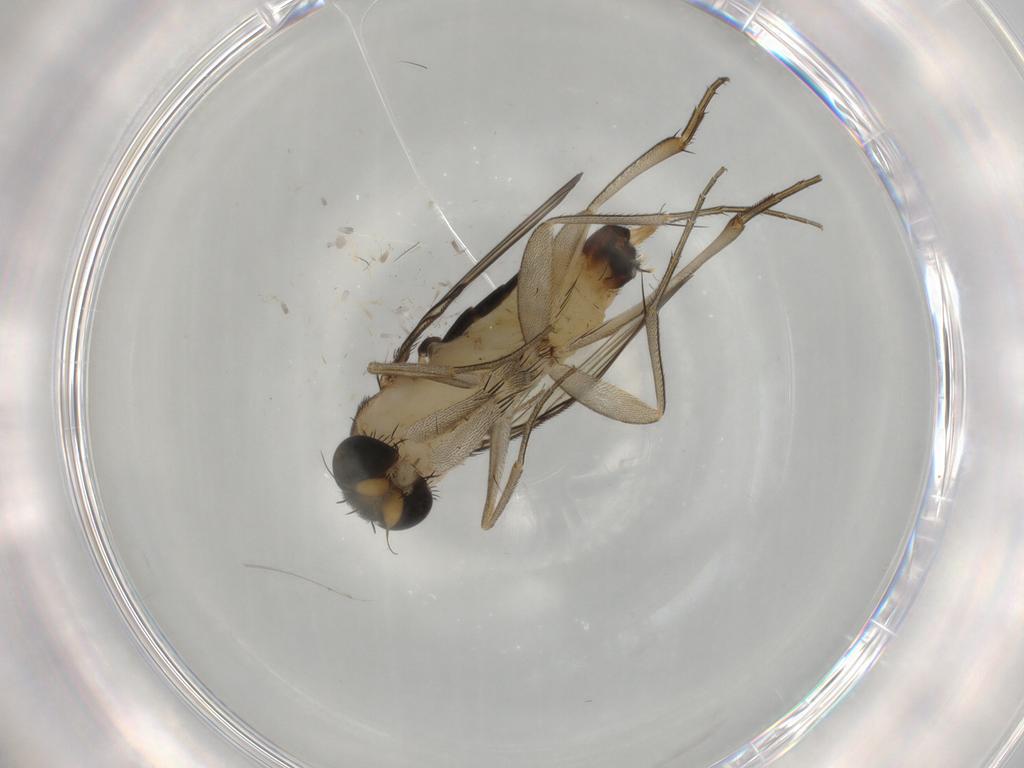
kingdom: Animalia
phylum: Arthropoda
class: Insecta
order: Diptera
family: Phoridae
